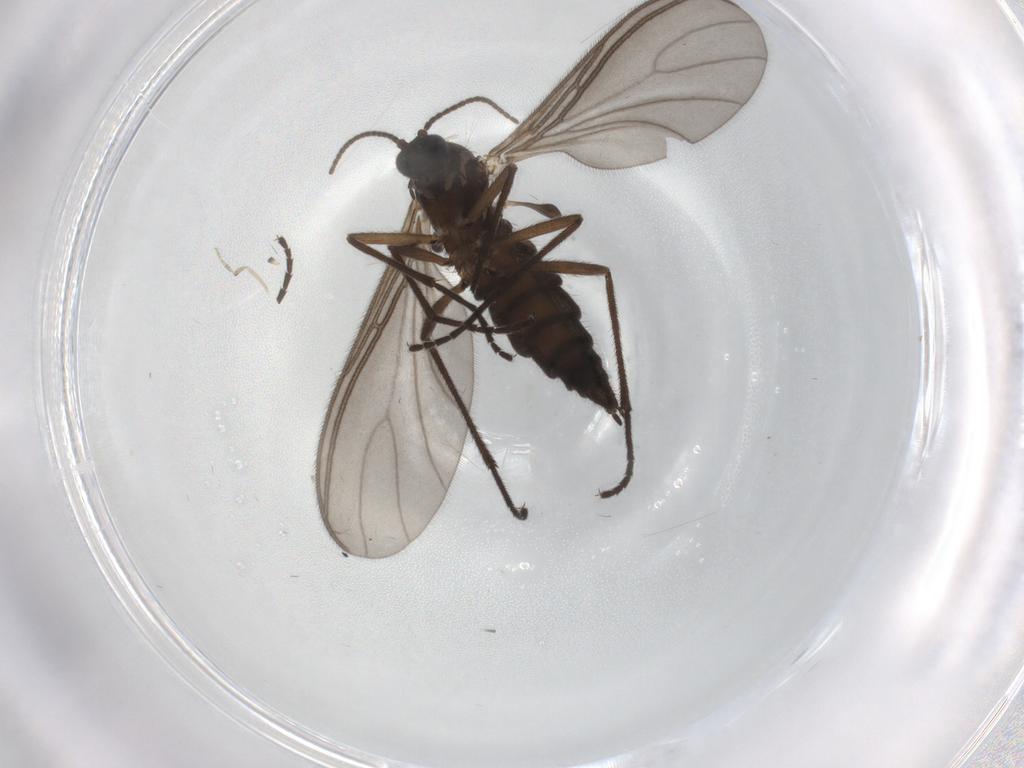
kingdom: Animalia
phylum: Arthropoda
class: Insecta
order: Diptera
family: Sciaridae
